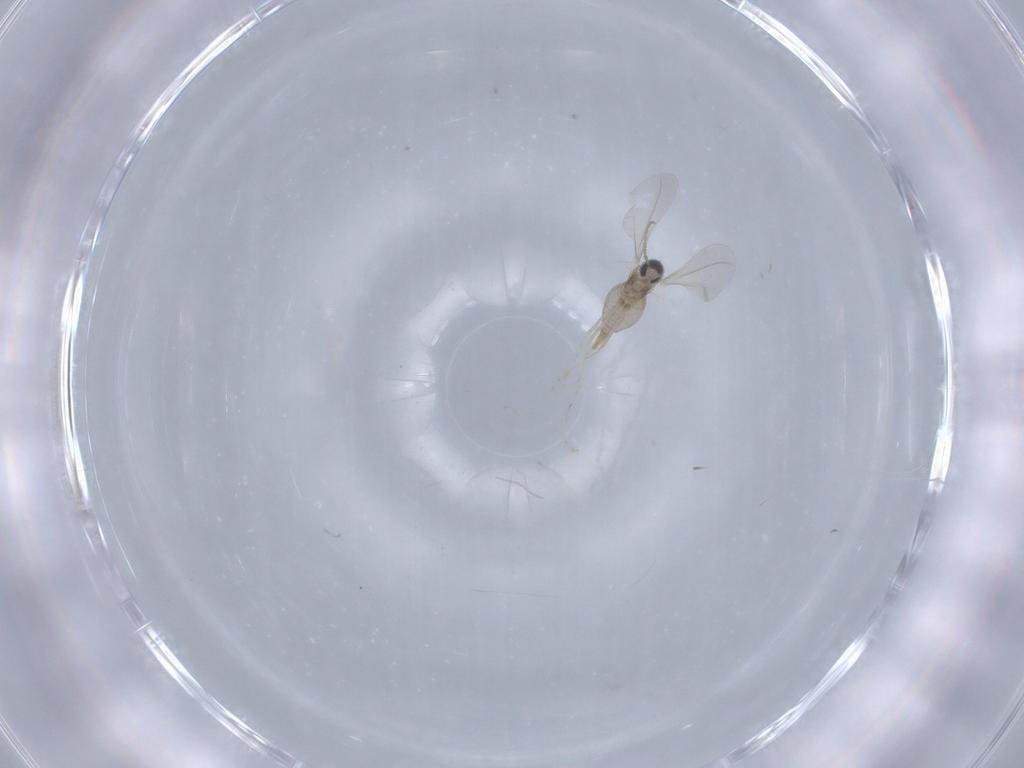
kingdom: Animalia
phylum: Arthropoda
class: Insecta
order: Diptera
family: Cecidomyiidae
